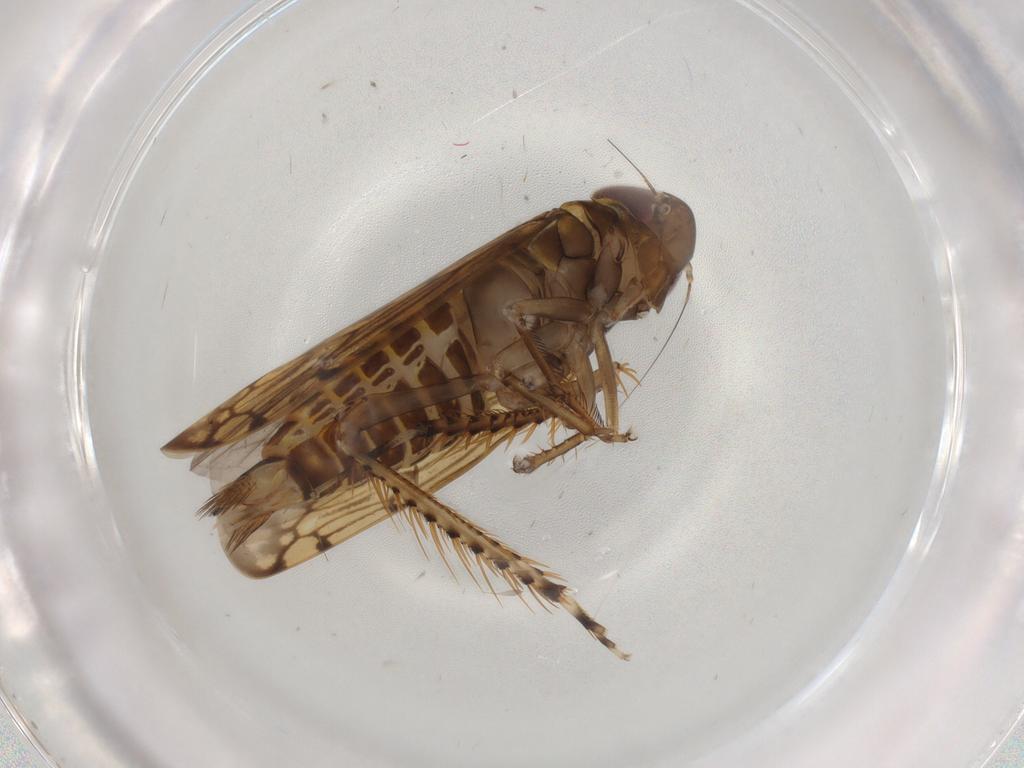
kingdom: Animalia
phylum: Arthropoda
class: Insecta
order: Hemiptera
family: Cicadellidae
